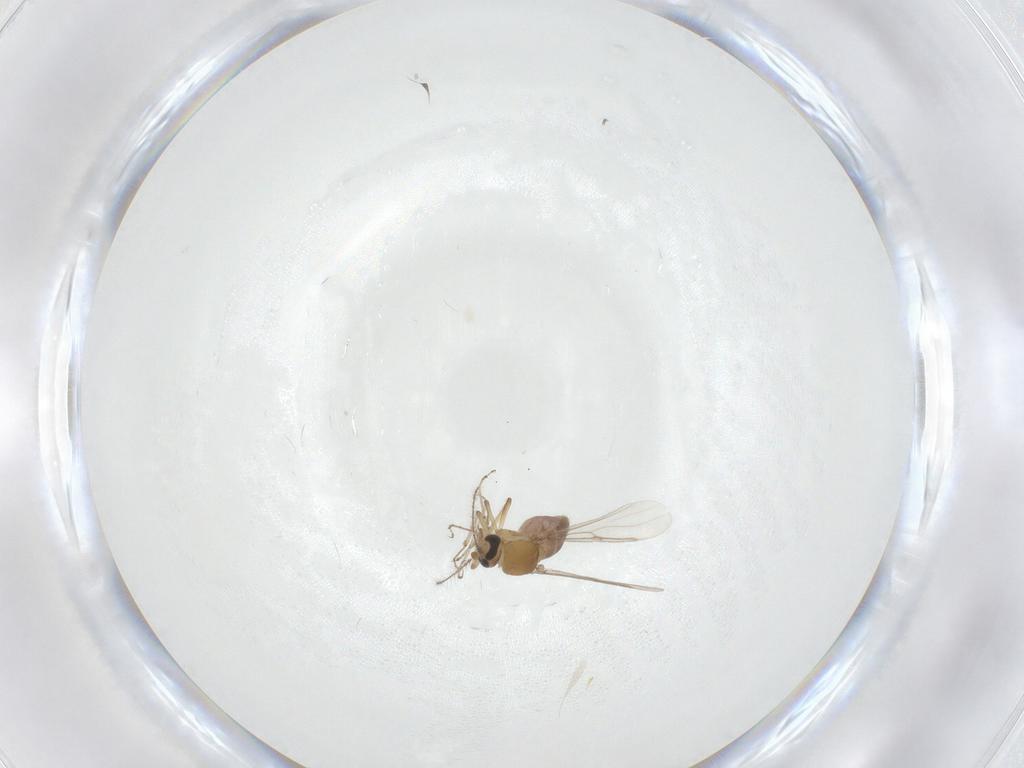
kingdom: Animalia
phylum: Arthropoda
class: Insecta
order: Diptera
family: Ceratopogonidae
